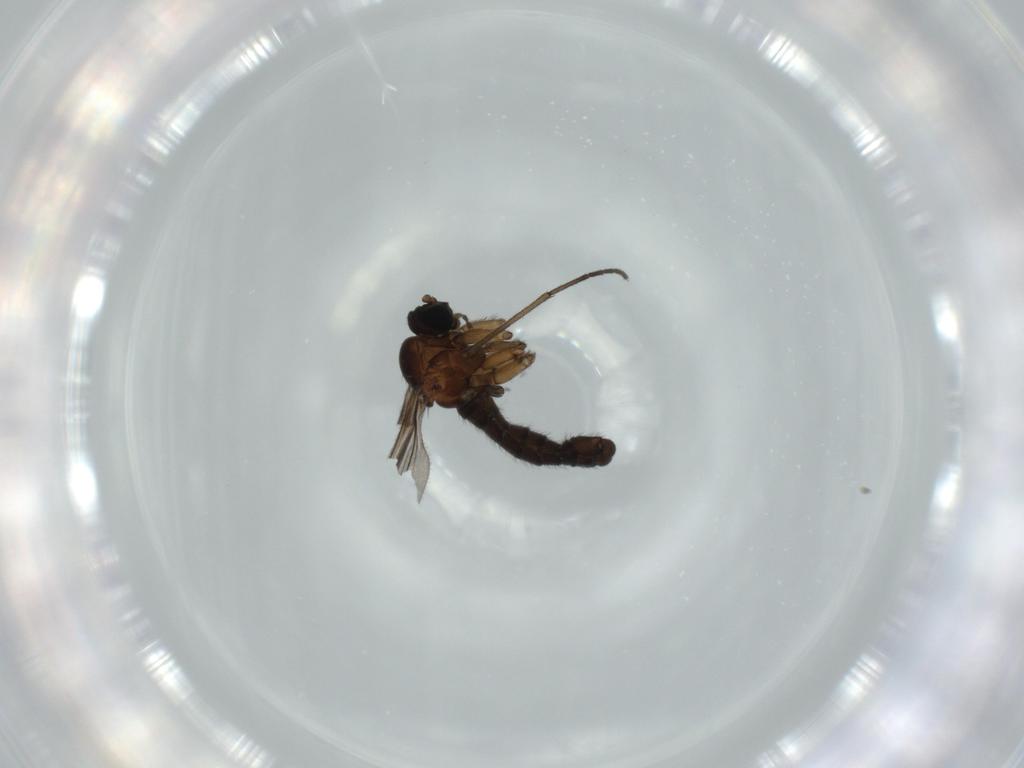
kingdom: Animalia
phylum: Arthropoda
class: Insecta
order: Diptera
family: Sciaridae
